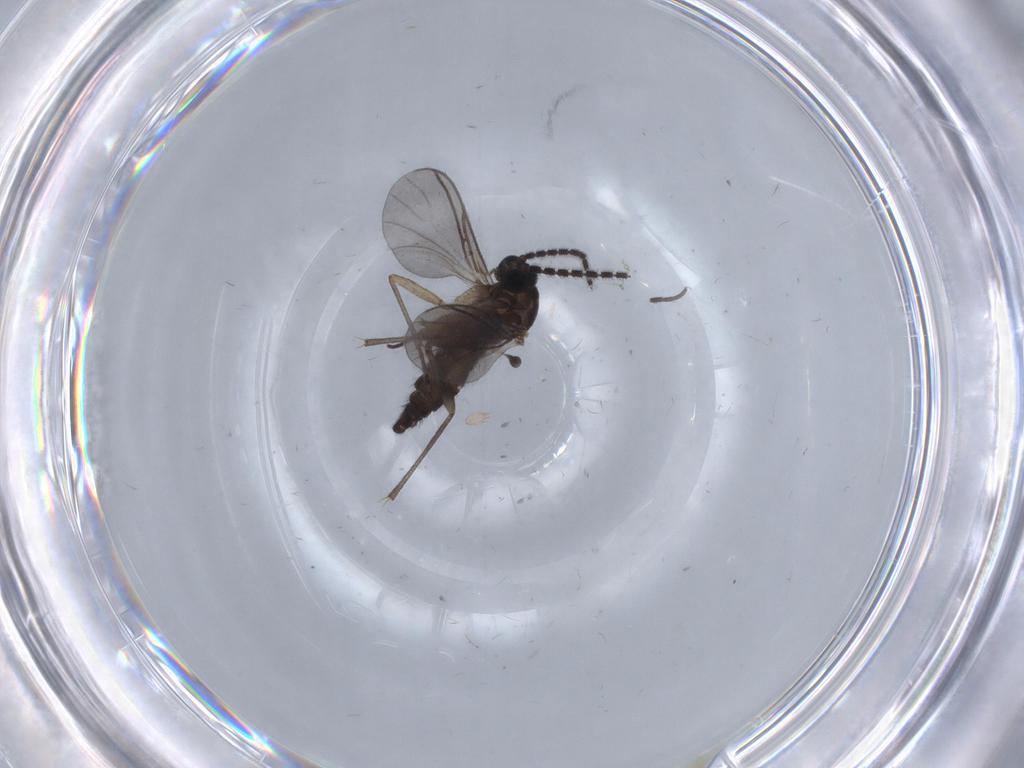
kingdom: Animalia
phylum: Arthropoda
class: Insecta
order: Diptera
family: Sciaridae
